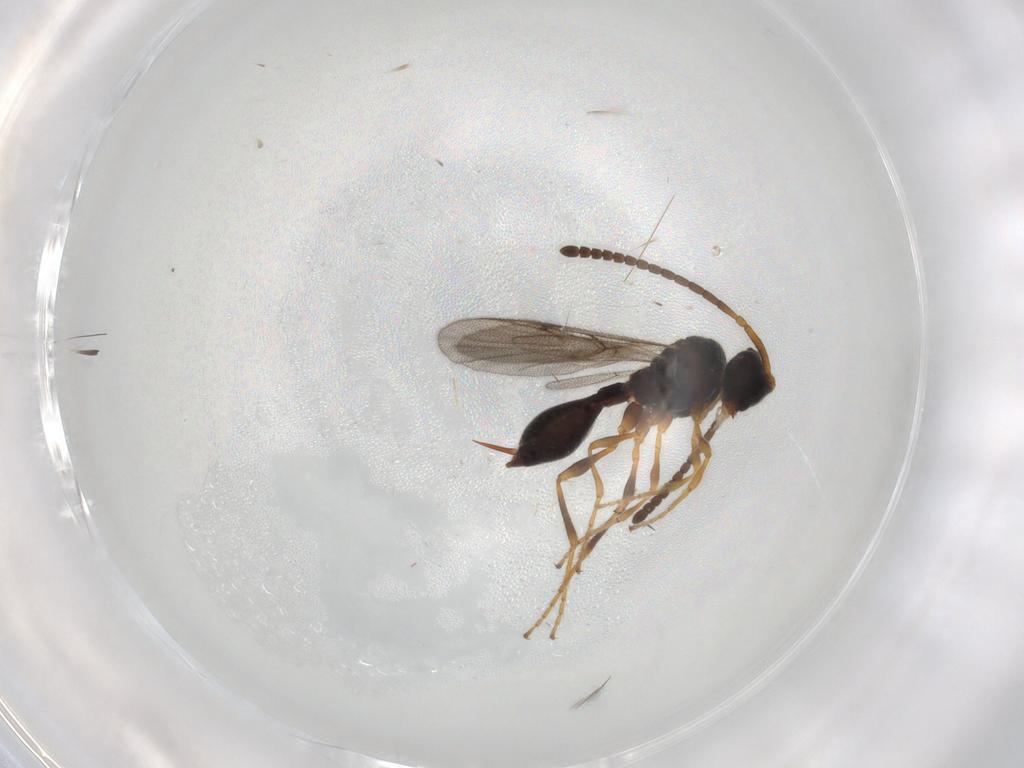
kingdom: Animalia
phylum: Arthropoda
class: Insecta
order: Hymenoptera
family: Diapriidae
